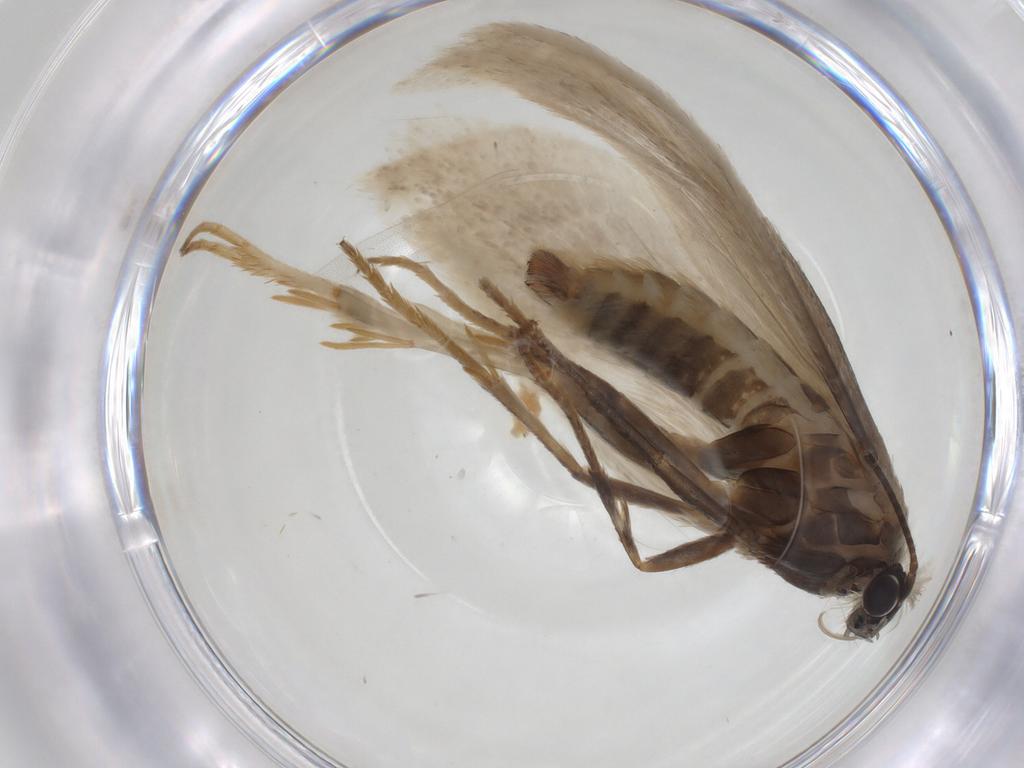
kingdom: Animalia
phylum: Arthropoda
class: Insecta
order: Lepidoptera
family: Tridentaformidae
